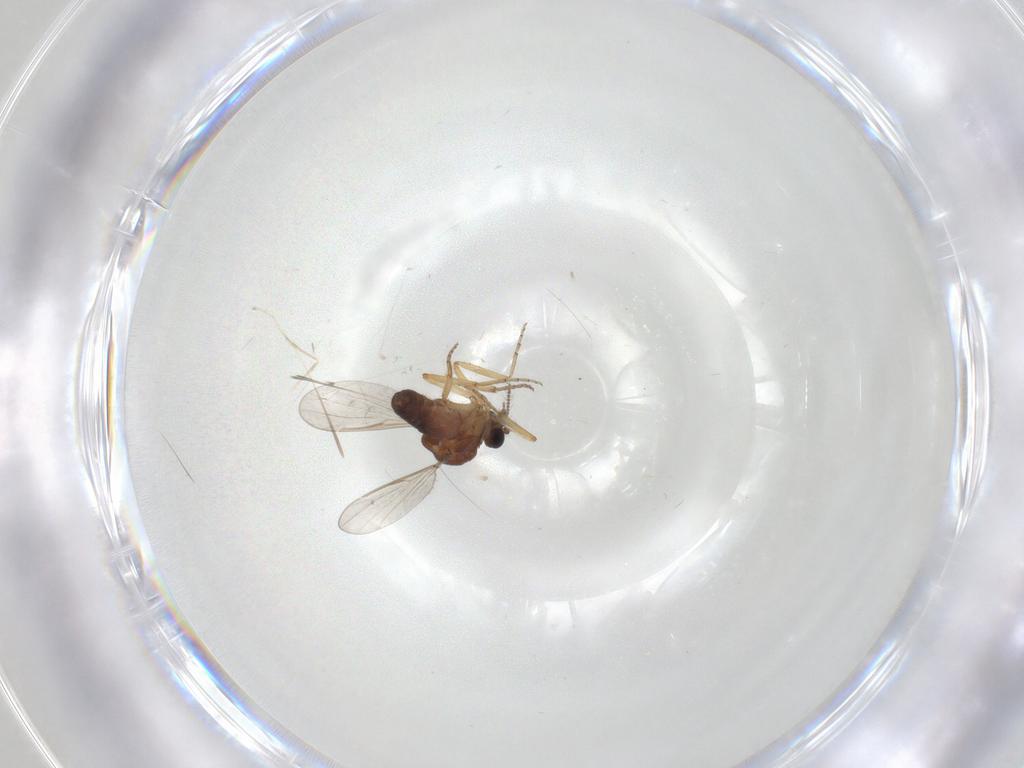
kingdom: Animalia
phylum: Arthropoda
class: Insecta
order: Diptera
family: Ceratopogonidae
